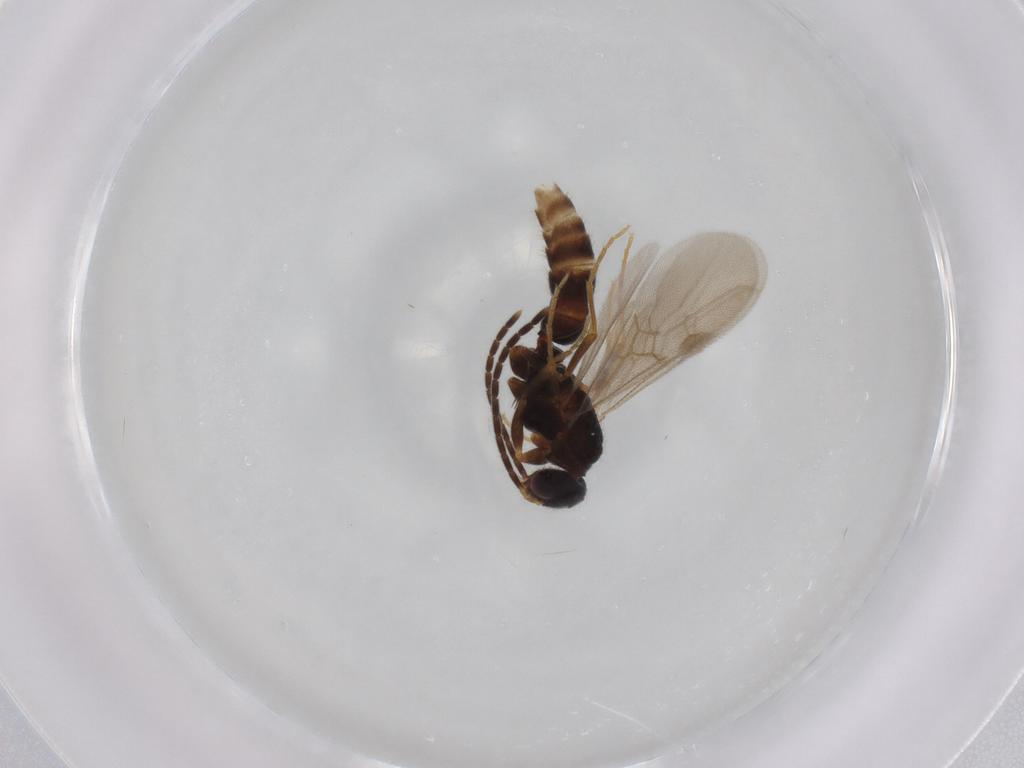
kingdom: Animalia
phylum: Arthropoda
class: Insecta
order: Hymenoptera
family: Formicidae
